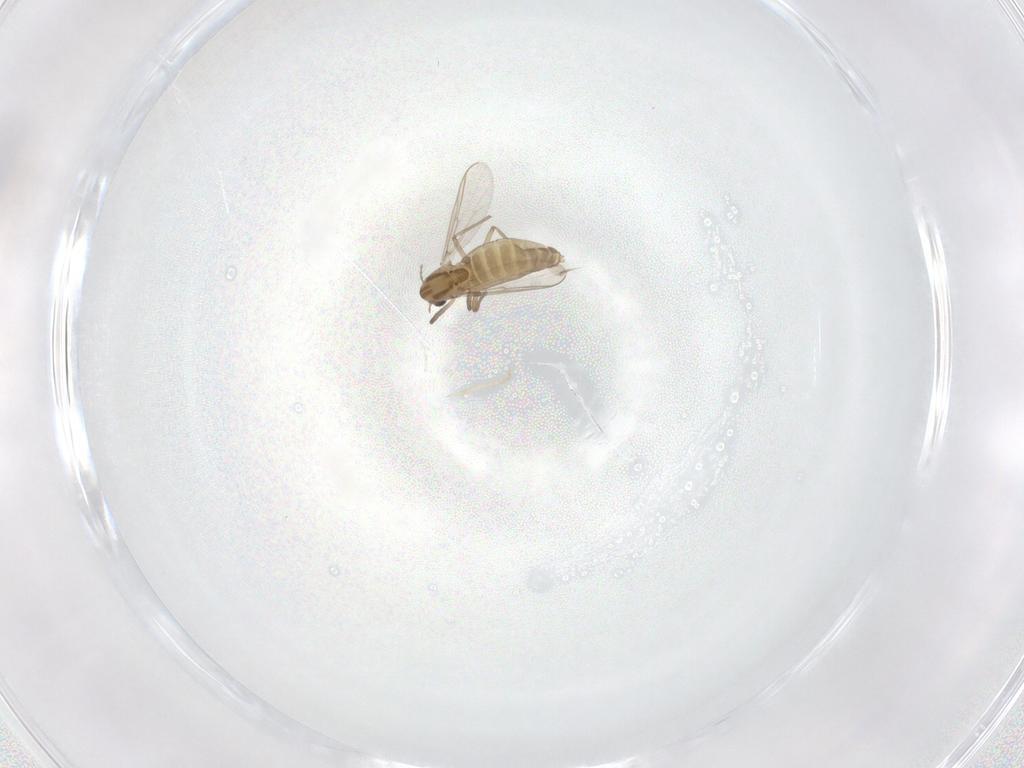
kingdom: Animalia
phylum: Arthropoda
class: Insecta
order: Diptera
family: Chironomidae
